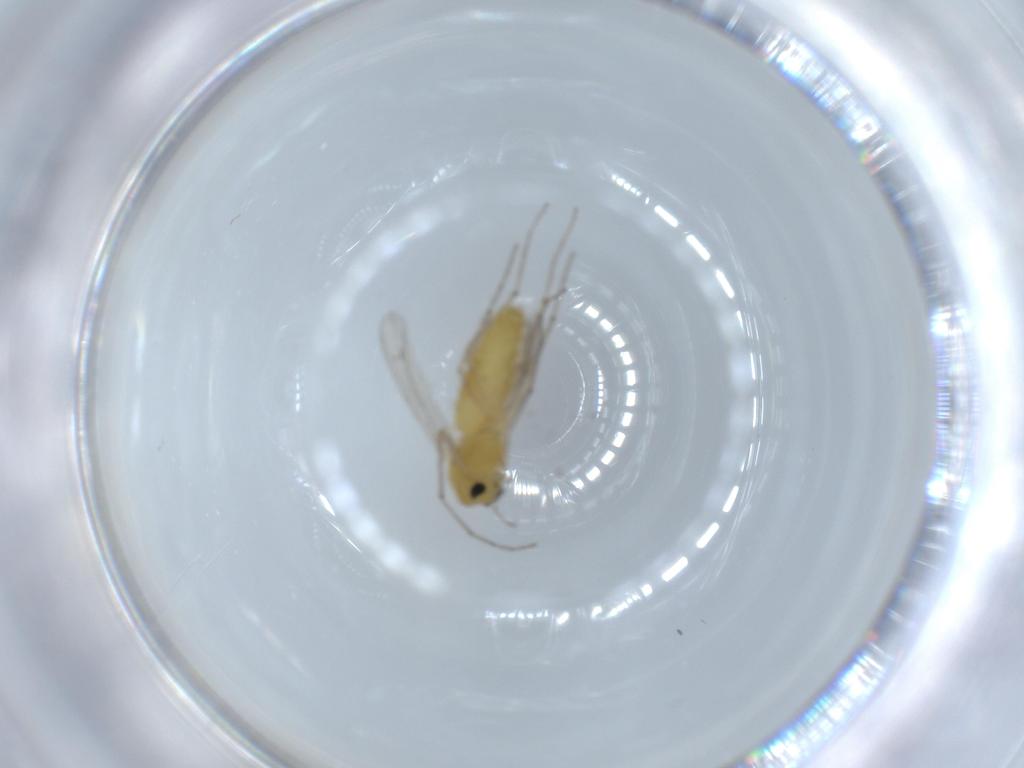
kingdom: Animalia
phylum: Arthropoda
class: Insecta
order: Diptera
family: Chironomidae
